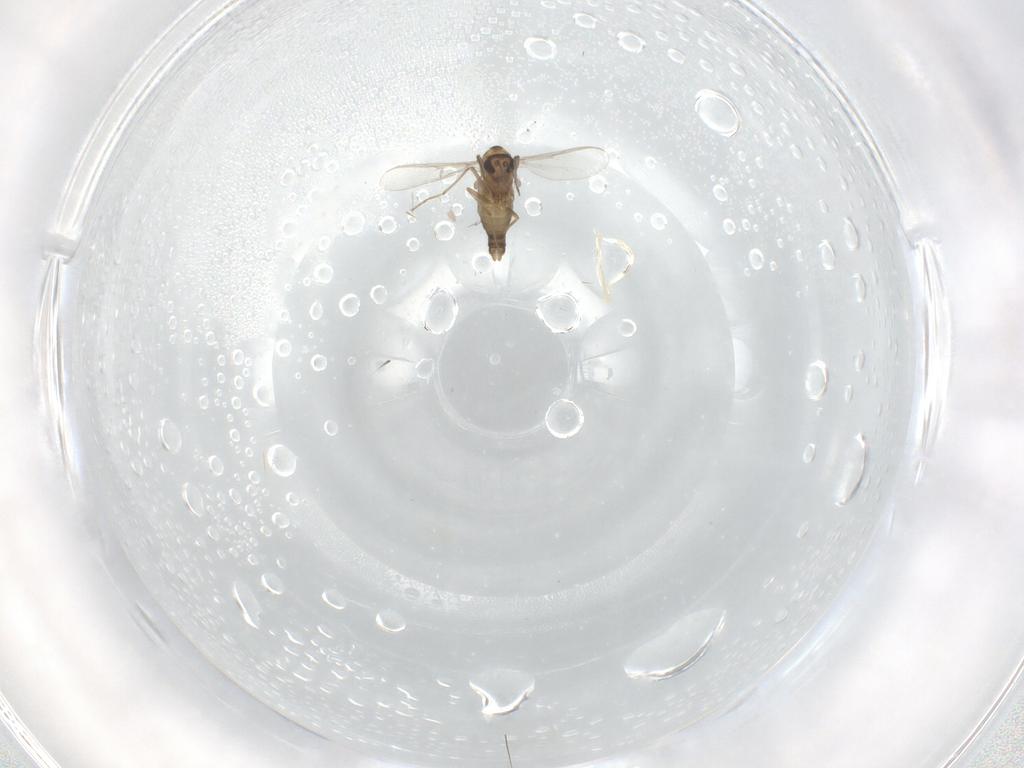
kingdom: Animalia
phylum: Arthropoda
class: Insecta
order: Diptera
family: Chironomidae
